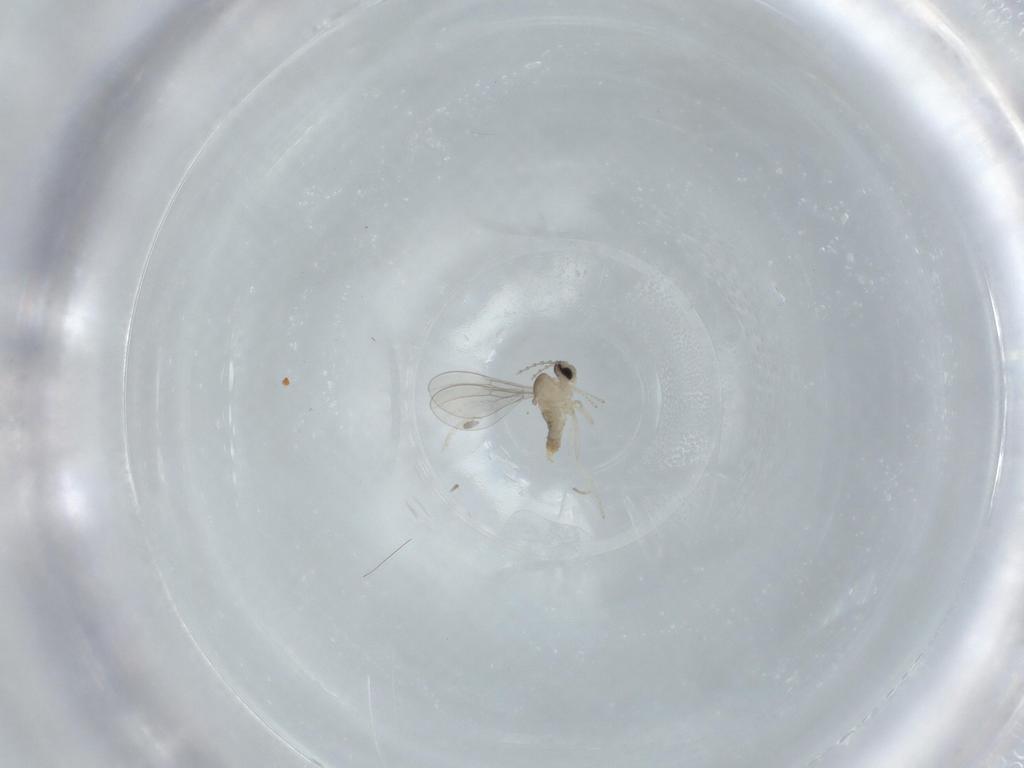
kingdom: Animalia
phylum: Arthropoda
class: Insecta
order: Diptera
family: Cecidomyiidae
